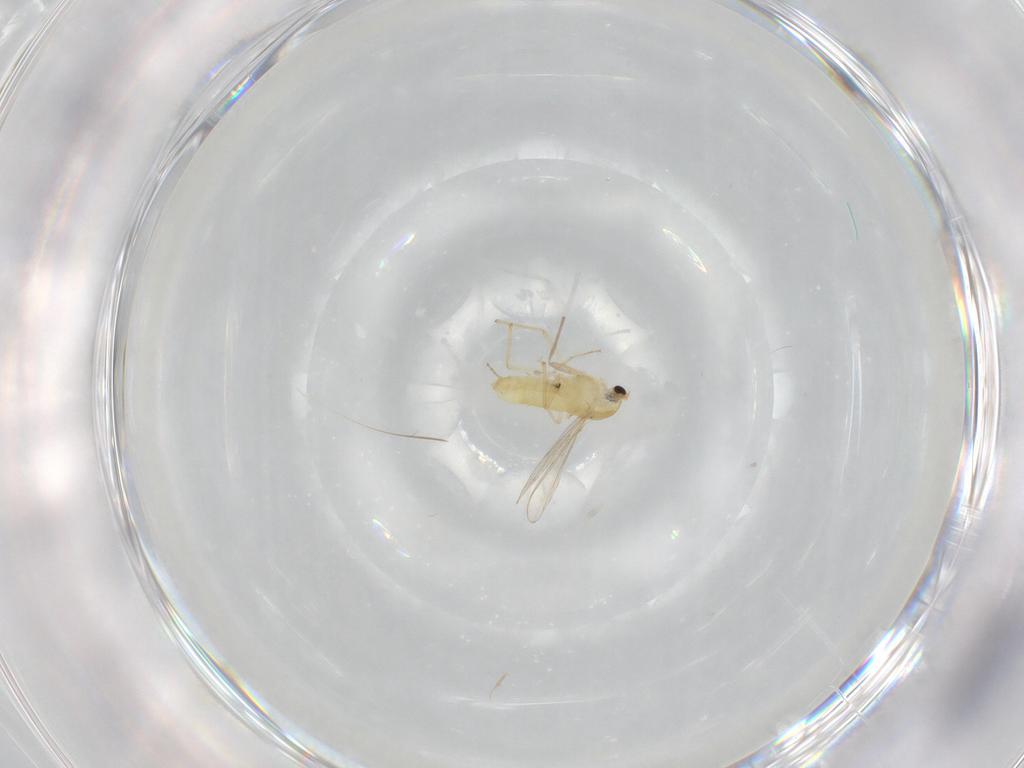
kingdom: Animalia
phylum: Arthropoda
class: Insecta
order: Diptera
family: Chironomidae
